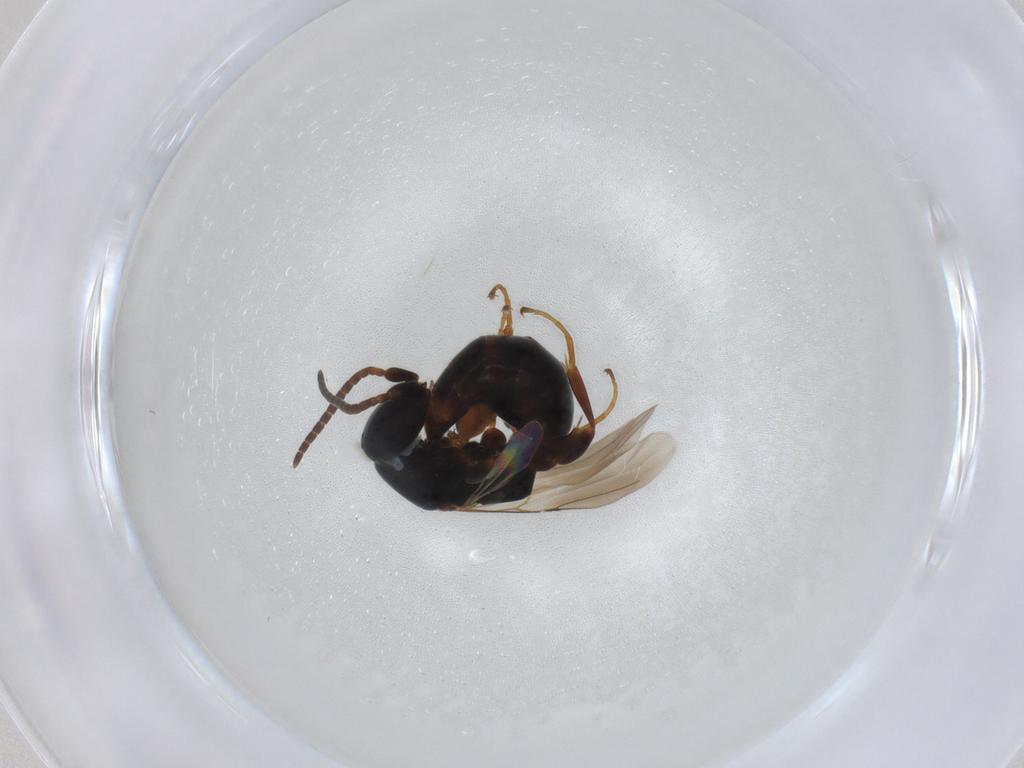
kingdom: Animalia
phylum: Arthropoda
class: Insecta
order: Hymenoptera
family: Bethylidae
